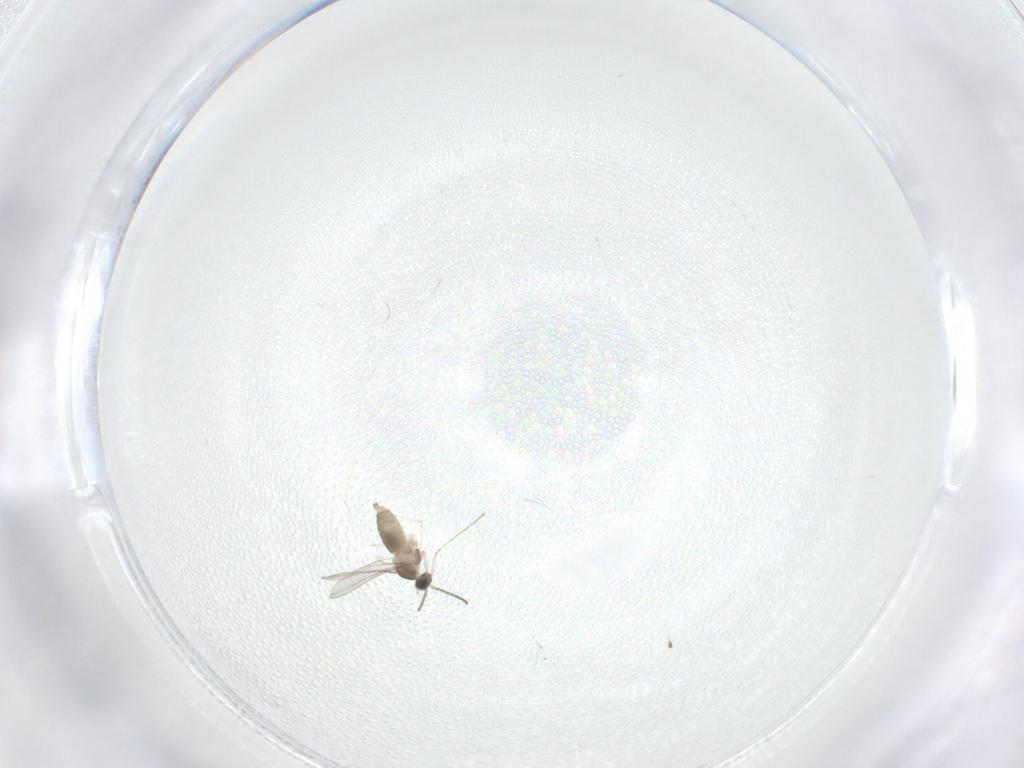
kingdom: Animalia
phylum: Arthropoda
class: Insecta
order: Diptera
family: Cecidomyiidae
